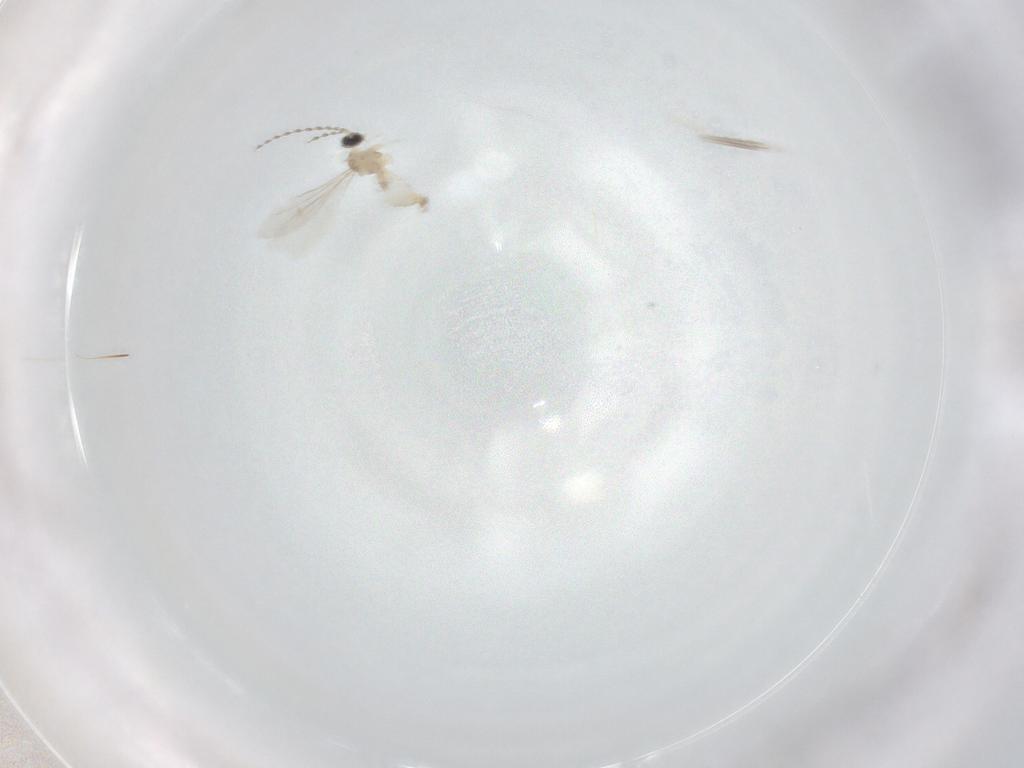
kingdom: Animalia
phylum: Arthropoda
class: Insecta
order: Diptera
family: Cecidomyiidae
